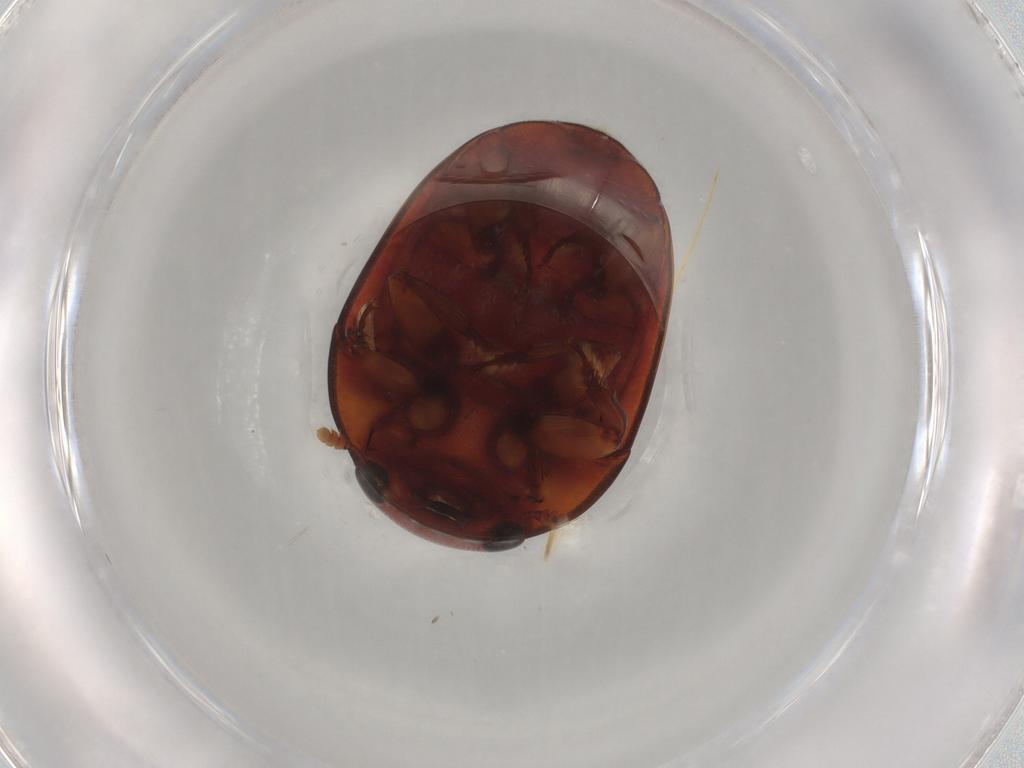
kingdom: Animalia
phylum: Arthropoda
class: Insecta
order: Coleoptera
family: Nitidulidae
